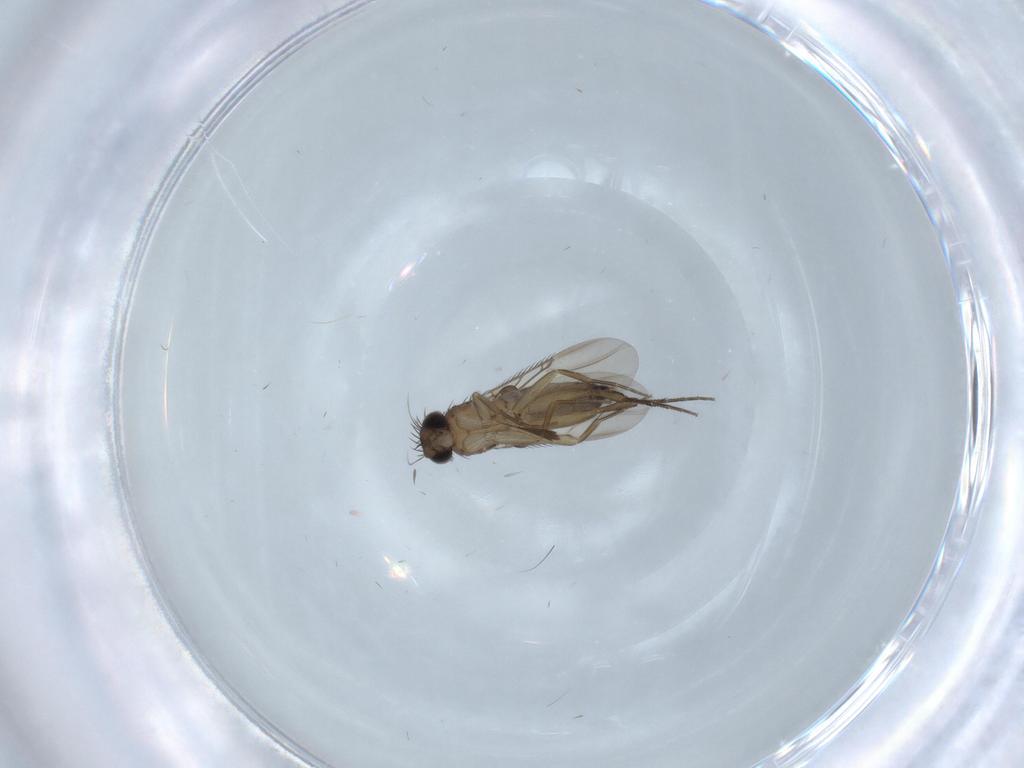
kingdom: Animalia
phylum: Arthropoda
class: Insecta
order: Diptera
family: Phoridae
